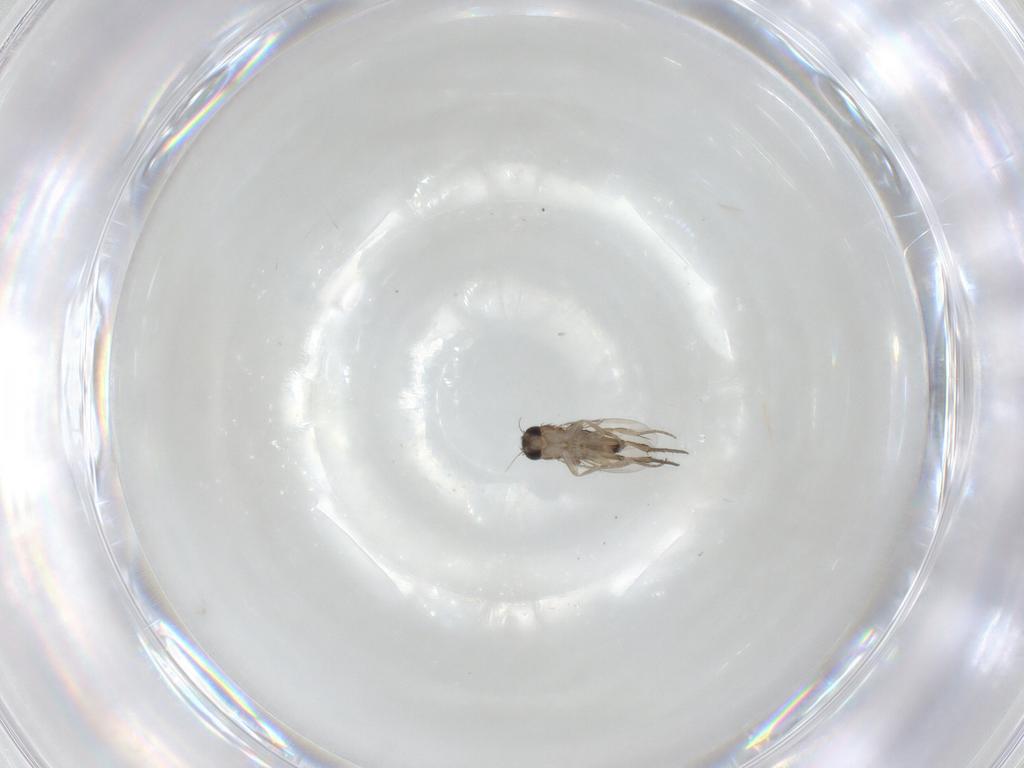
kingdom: Animalia
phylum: Arthropoda
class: Insecta
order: Diptera
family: Phoridae
